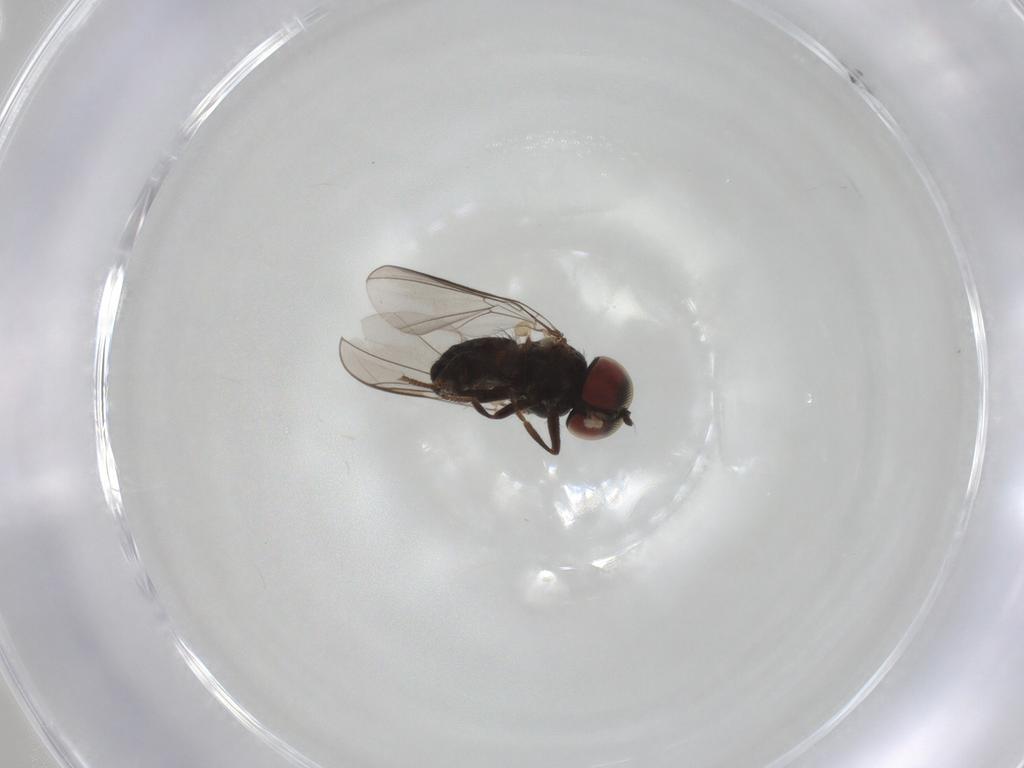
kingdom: Animalia
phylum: Arthropoda
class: Insecta
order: Diptera
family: Pipunculidae
